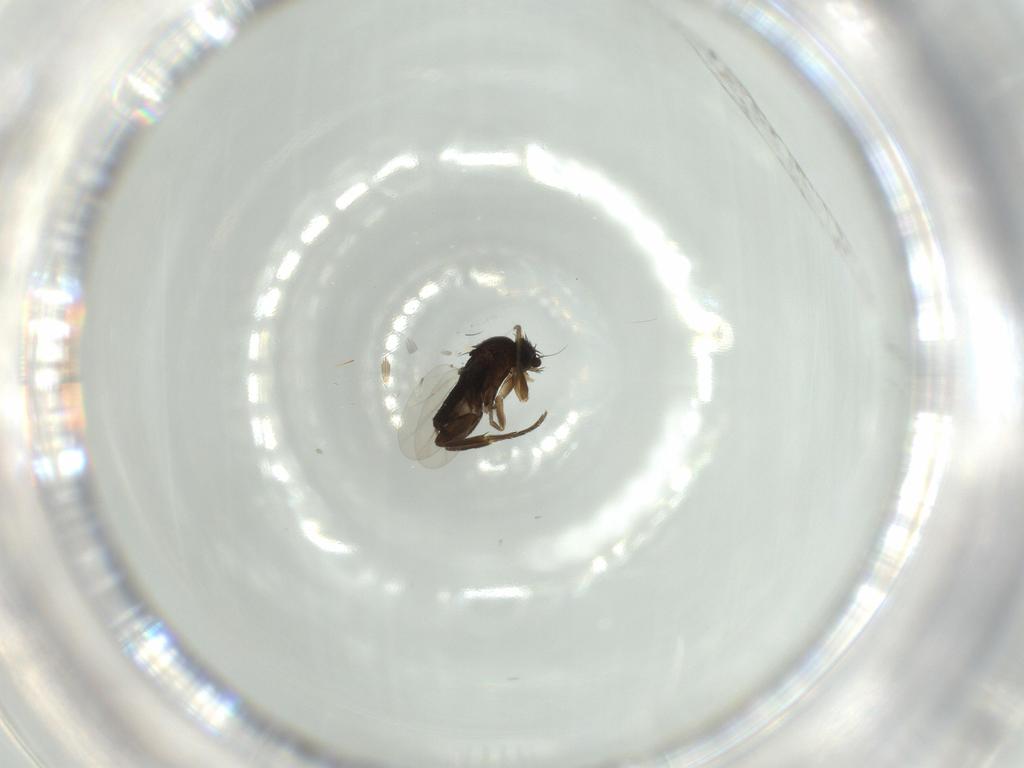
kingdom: Animalia
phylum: Arthropoda
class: Insecta
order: Diptera
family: Phoridae
